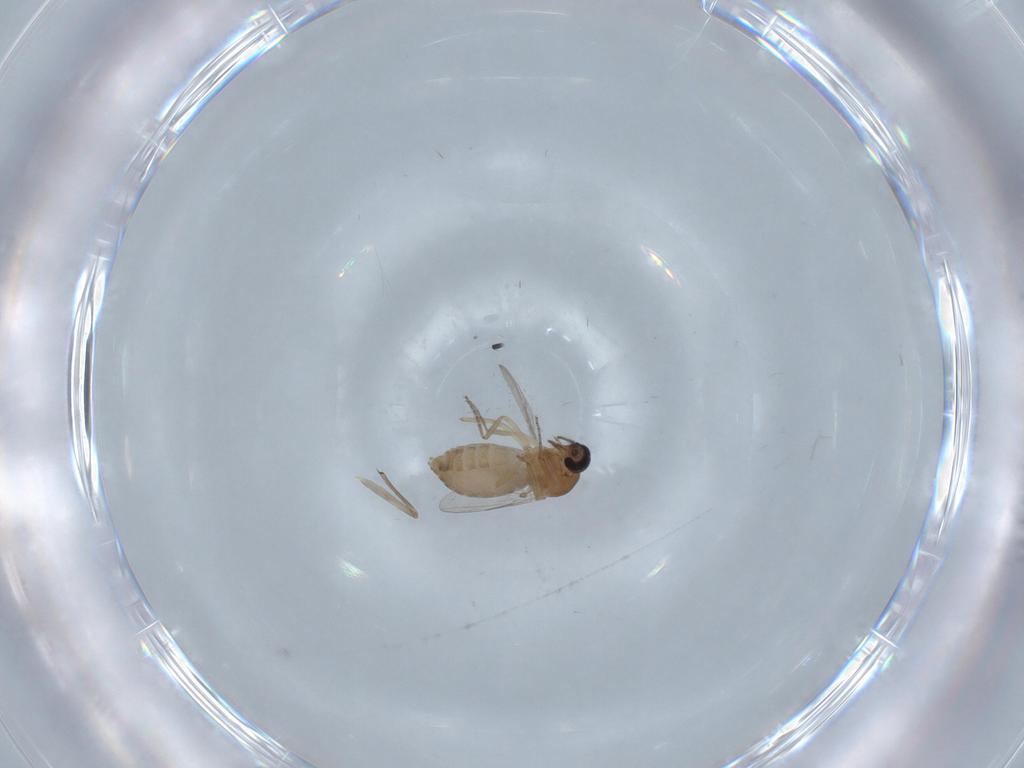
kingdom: Animalia
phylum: Arthropoda
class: Insecta
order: Diptera
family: Ceratopogonidae
